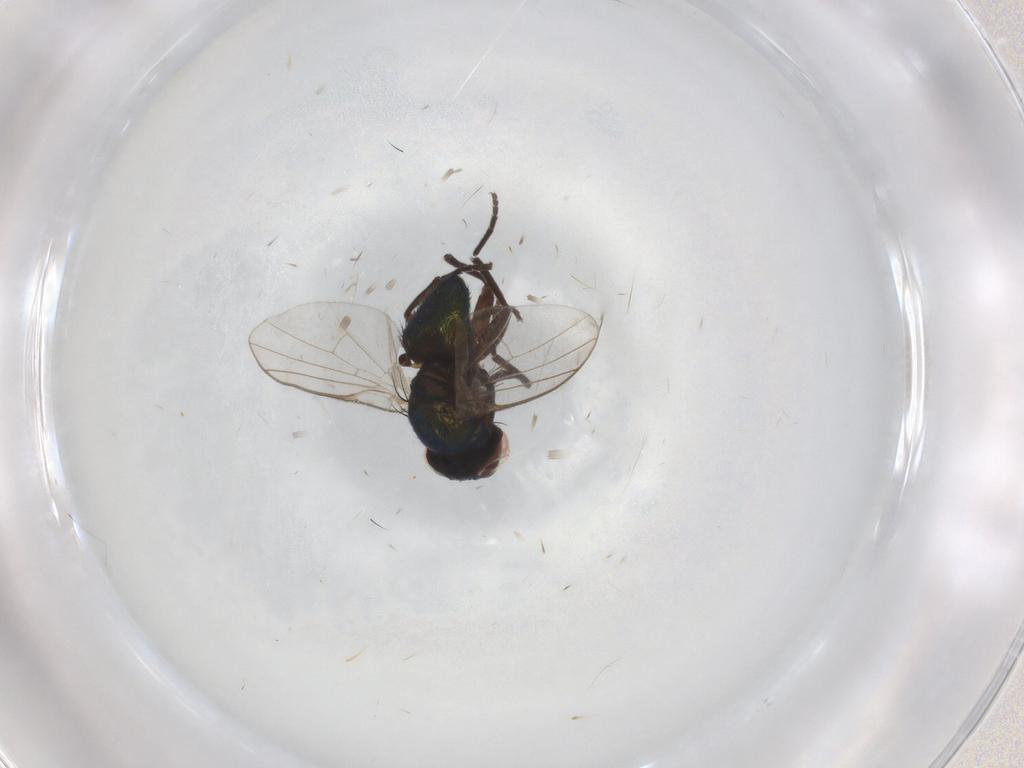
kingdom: Animalia
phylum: Arthropoda
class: Insecta
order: Diptera
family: Agromyzidae
